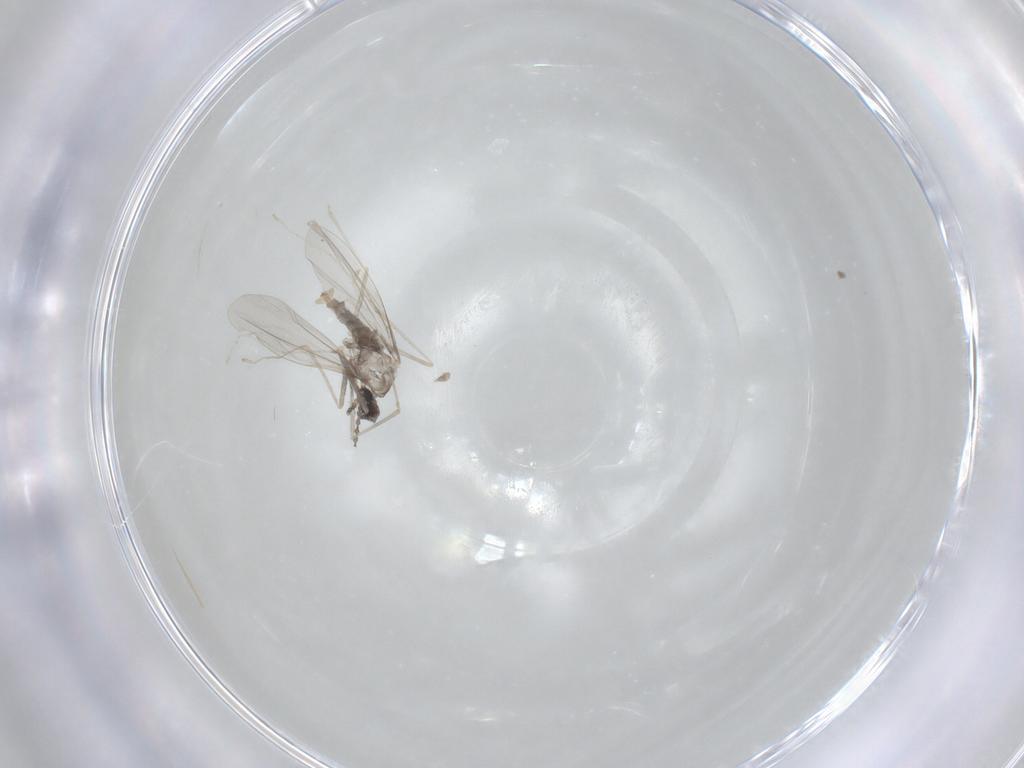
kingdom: Animalia
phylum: Arthropoda
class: Insecta
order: Diptera
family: Cecidomyiidae
